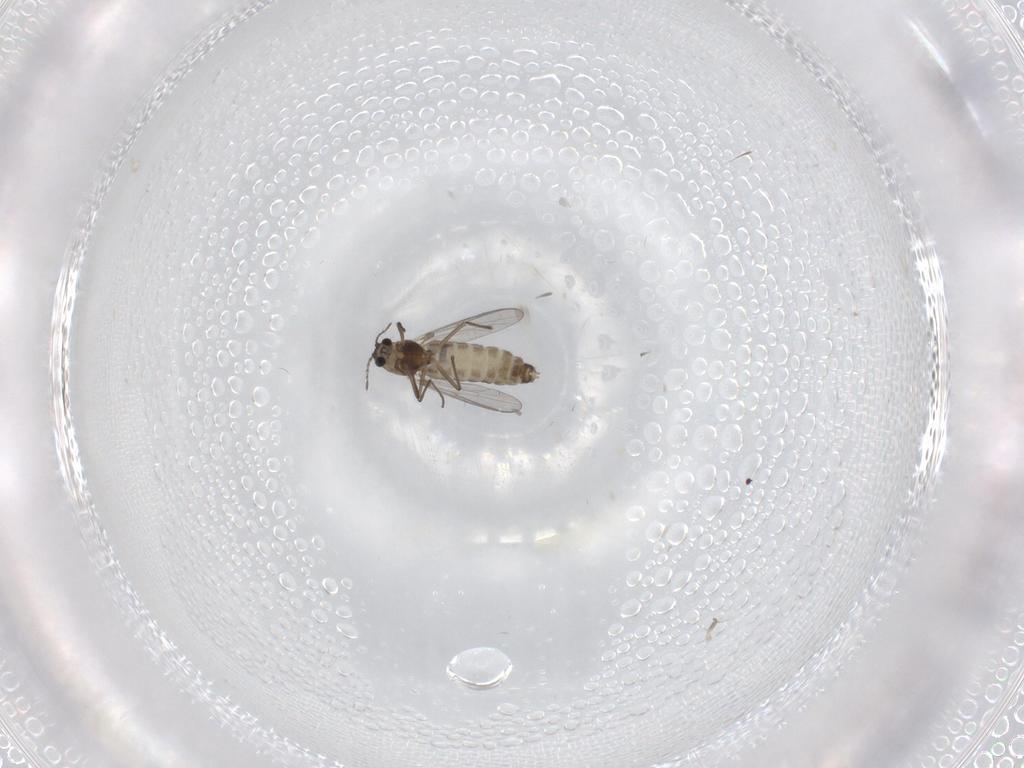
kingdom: Animalia
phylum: Arthropoda
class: Insecta
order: Diptera
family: Chironomidae
